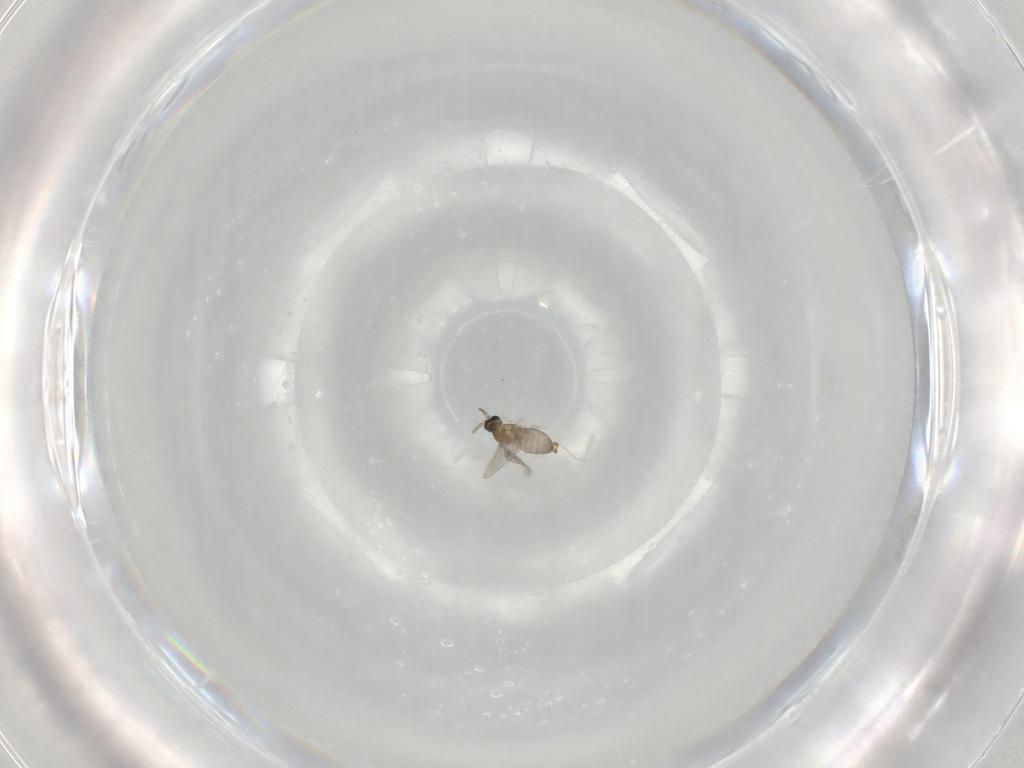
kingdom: Animalia
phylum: Arthropoda
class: Insecta
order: Diptera
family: Cecidomyiidae
